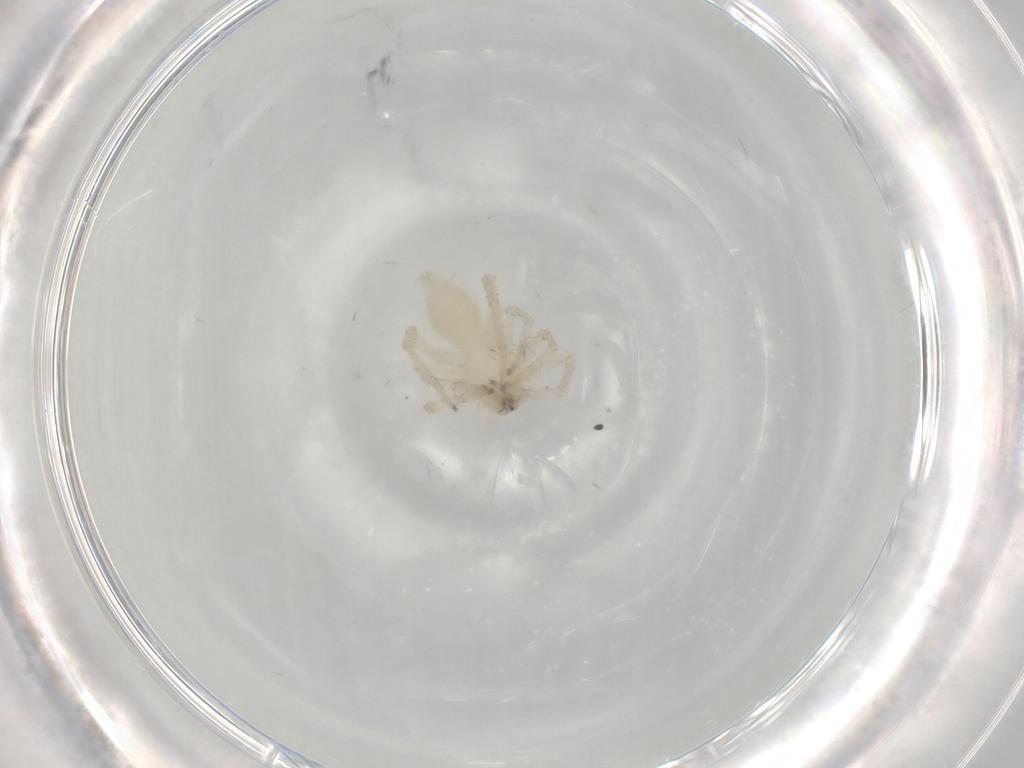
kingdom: Animalia
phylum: Arthropoda
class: Arachnida
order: Araneae
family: Anyphaenidae
